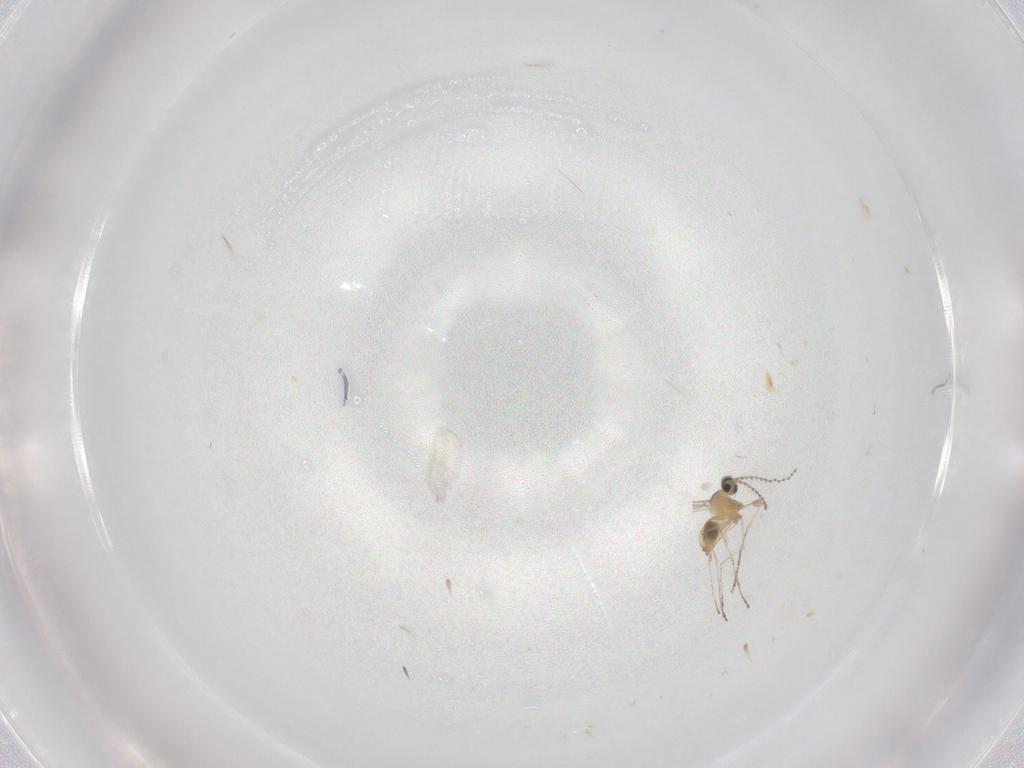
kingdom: Animalia
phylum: Arthropoda
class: Insecta
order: Diptera
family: Cecidomyiidae
